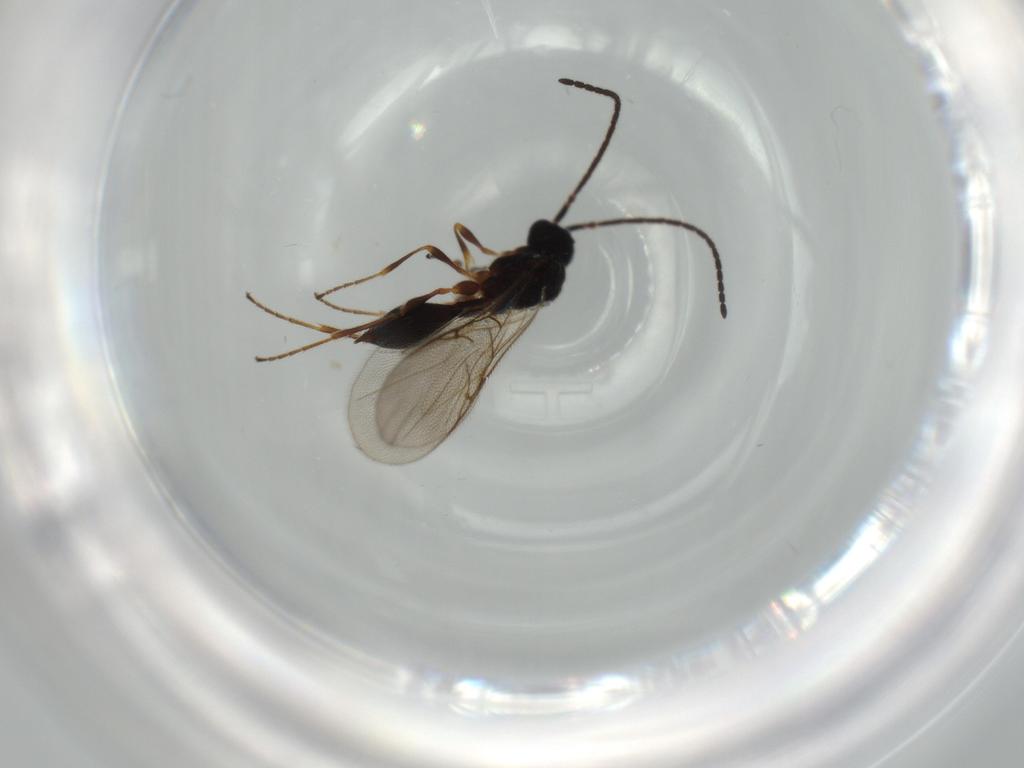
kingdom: Animalia
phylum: Arthropoda
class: Insecta
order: Hymenoptera
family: Diapriidae
